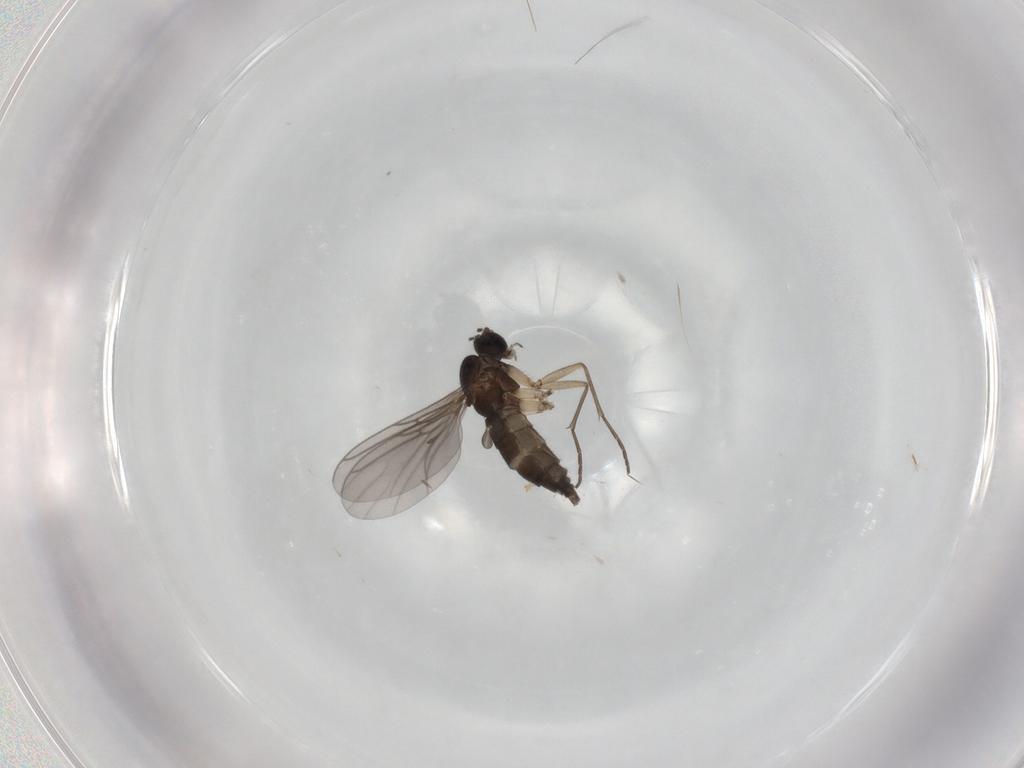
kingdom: Animalia
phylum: Arthropoda
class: Insecta
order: Diptera
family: Sciaridae
